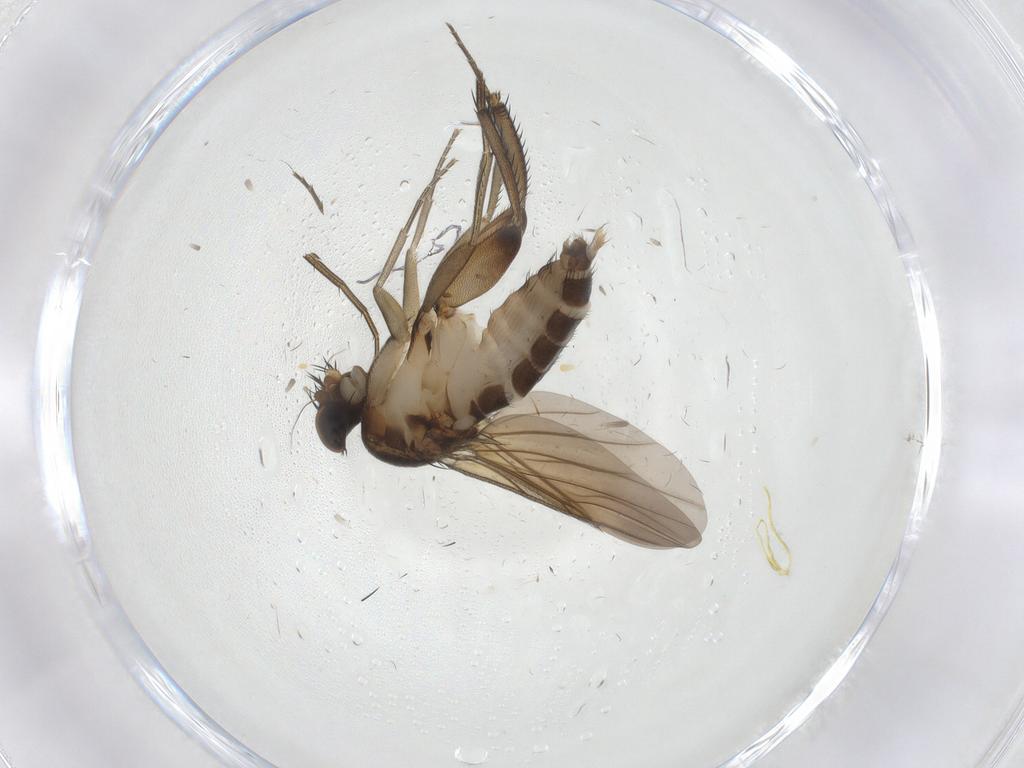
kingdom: Animalia
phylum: Arthropoda
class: Insecta
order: Diptera
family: Phoridae
